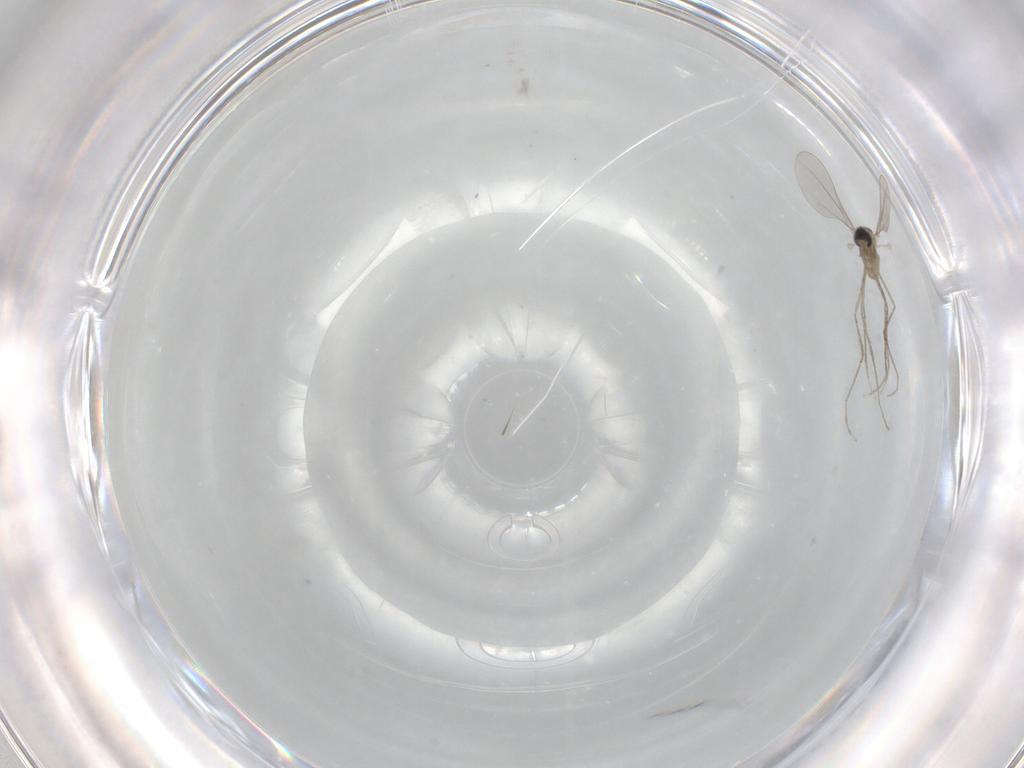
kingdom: Animalia
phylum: Arthropoda
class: Insecta
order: Diptera
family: Cecidomyiidae
